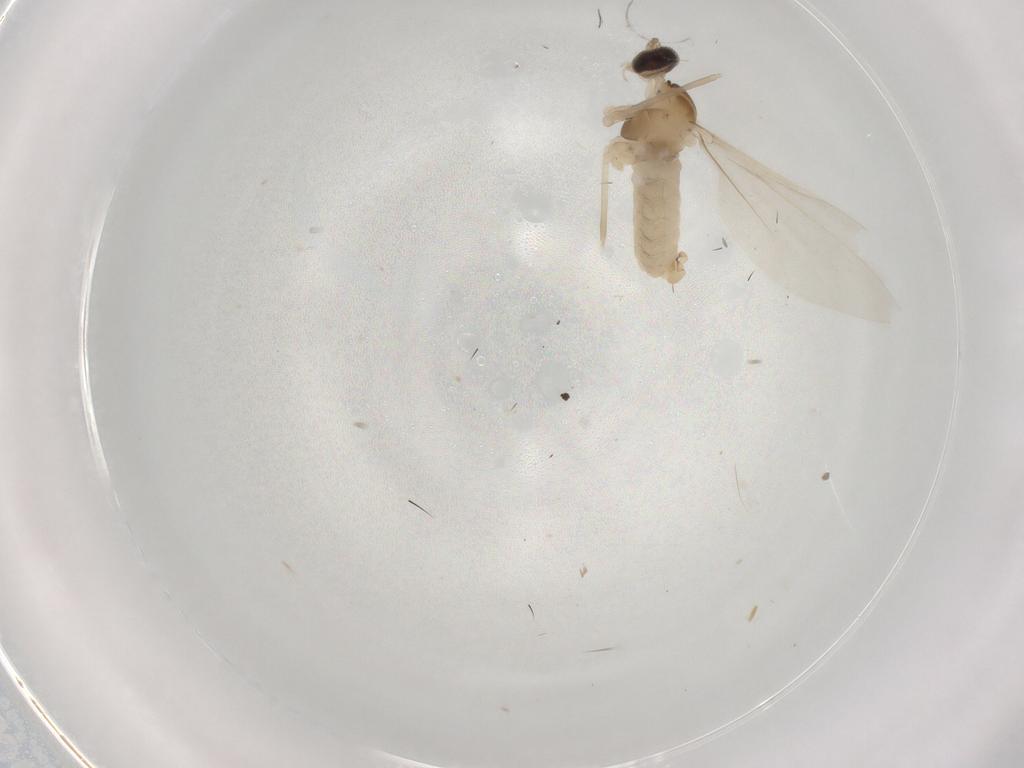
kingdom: Animalia
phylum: Arthropoda
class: Insecta
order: Diptera
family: Cecidomyiidae
